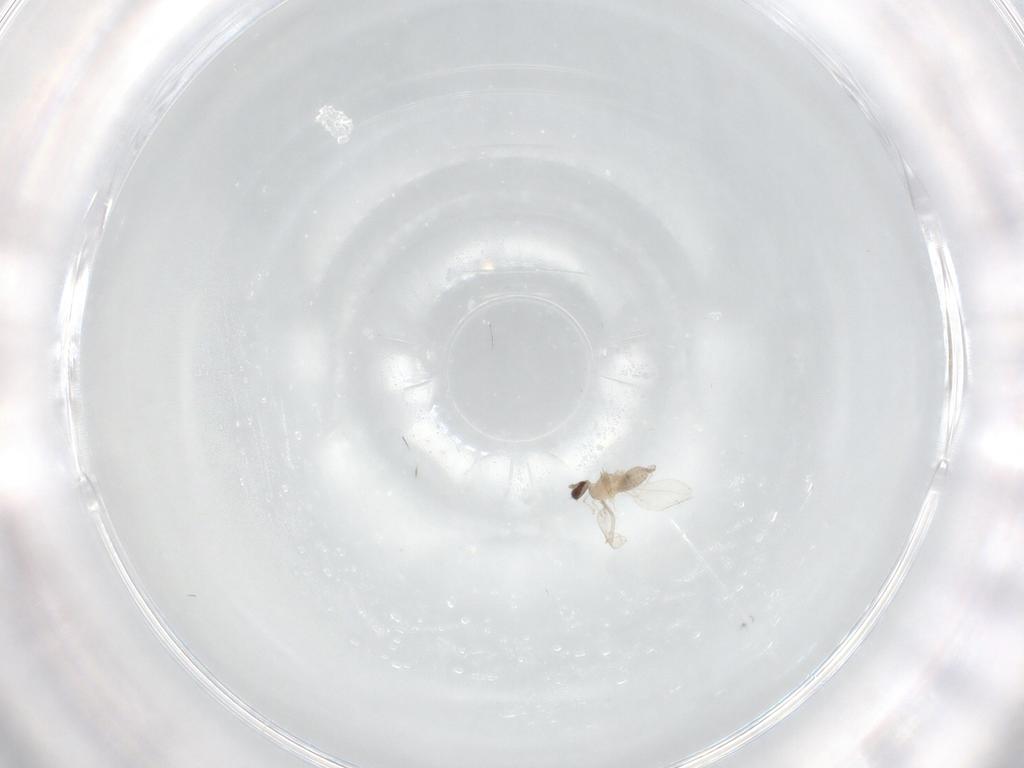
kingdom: Animalia
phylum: Arthropoda
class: Insecta
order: Diptera
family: Cecidomyiidae
